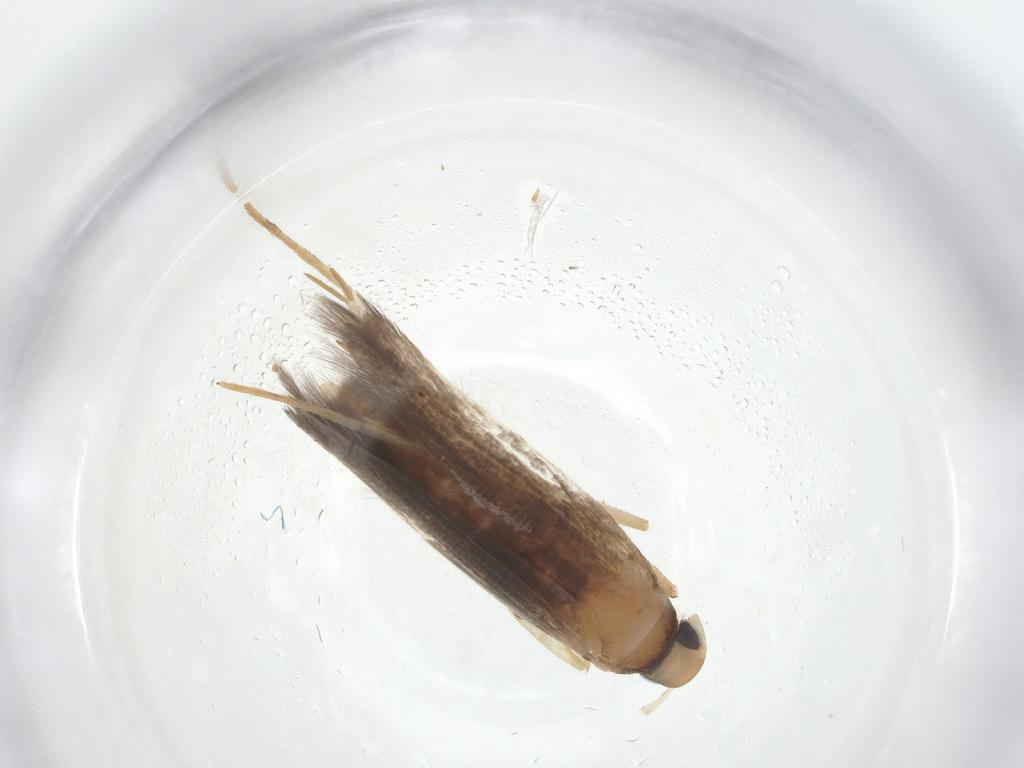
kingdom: Animalia
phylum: Arthropoda
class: Insecta
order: Lepidoptera
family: Cosmopterigidae
